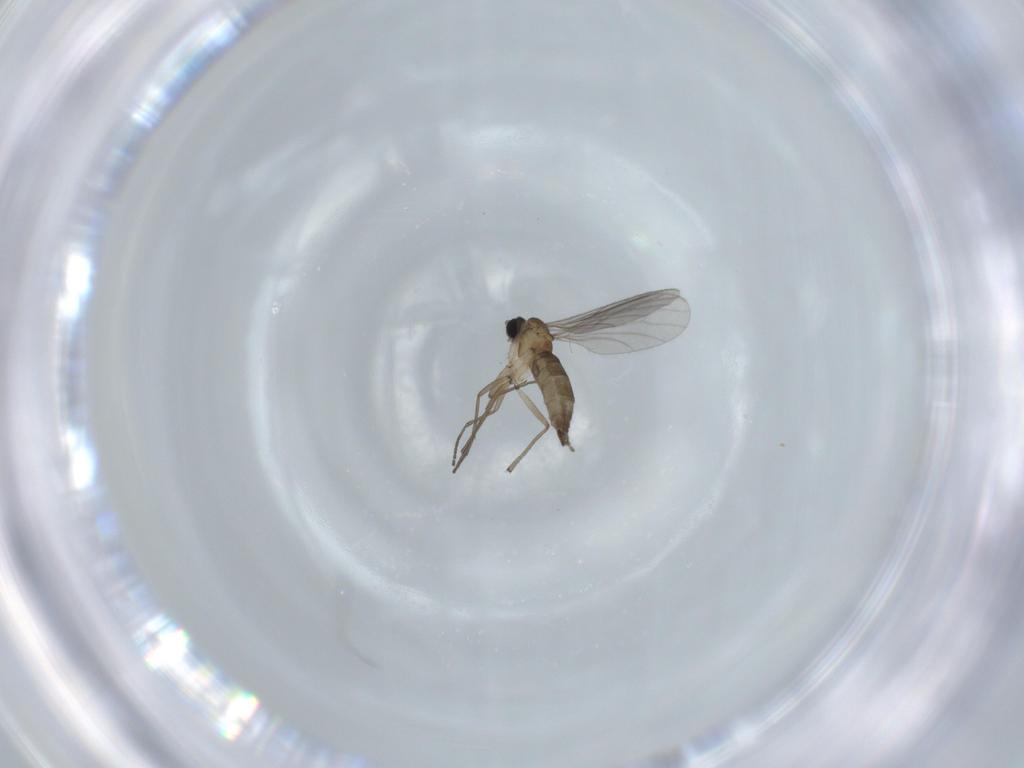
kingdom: Animalia
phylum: Arthropoda
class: Insecta
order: Diptera
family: Sciaridae
